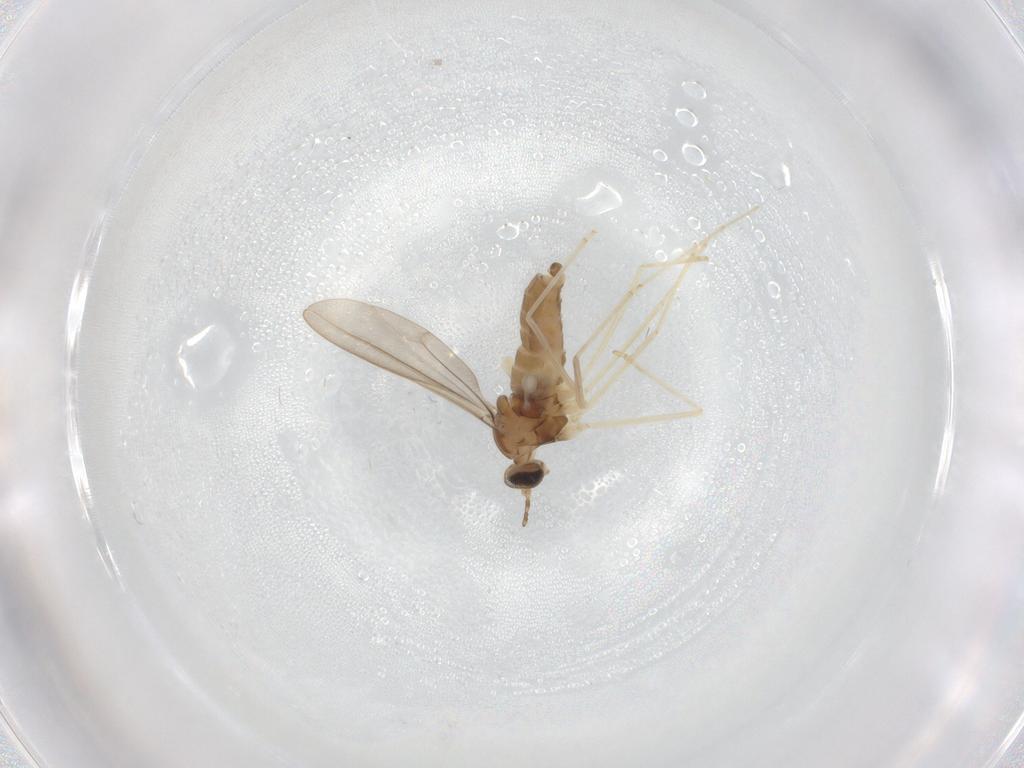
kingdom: Animalia
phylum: Arthropoda
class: Insecta
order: Diptera
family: Cecidomyiidae
